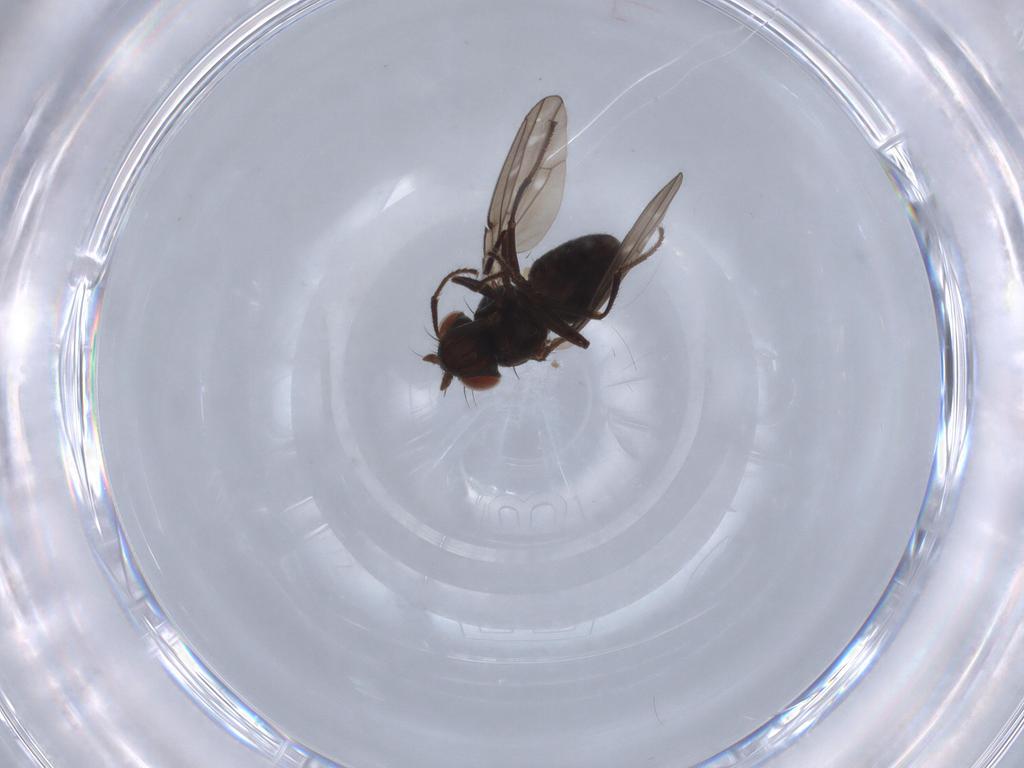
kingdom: Animalia
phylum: Arthropoda
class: Insecta
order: Diptera
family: Ephydridae
